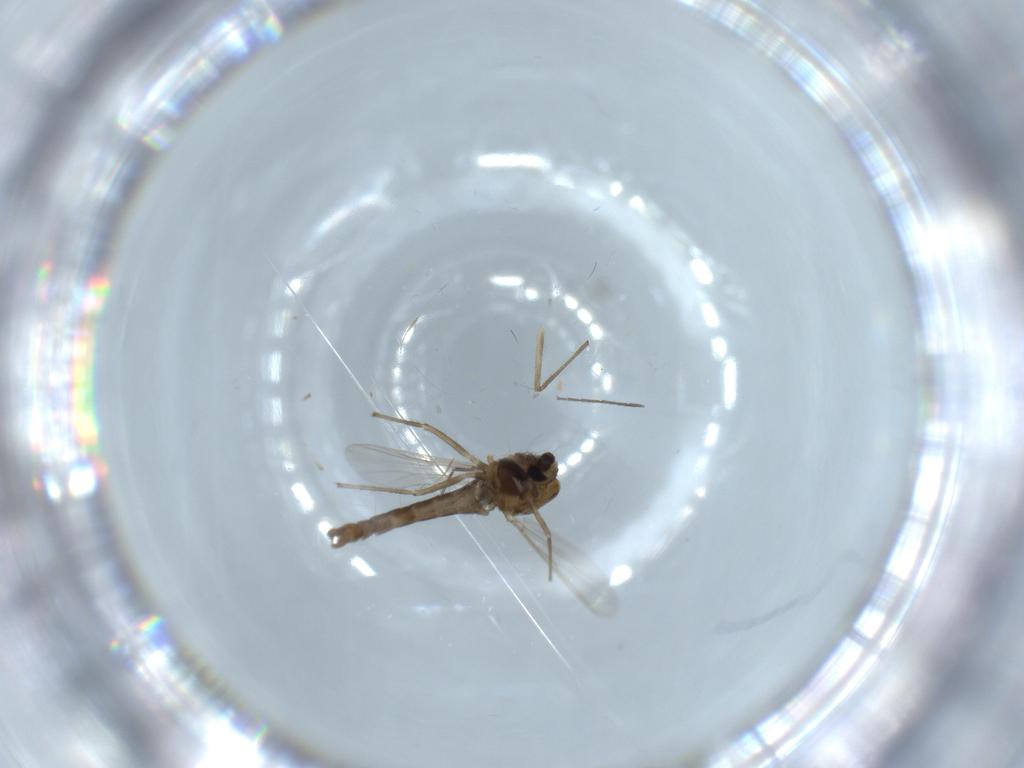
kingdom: Animalia
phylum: Arthropoda
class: Insecta
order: Diptera
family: Chironomidae
